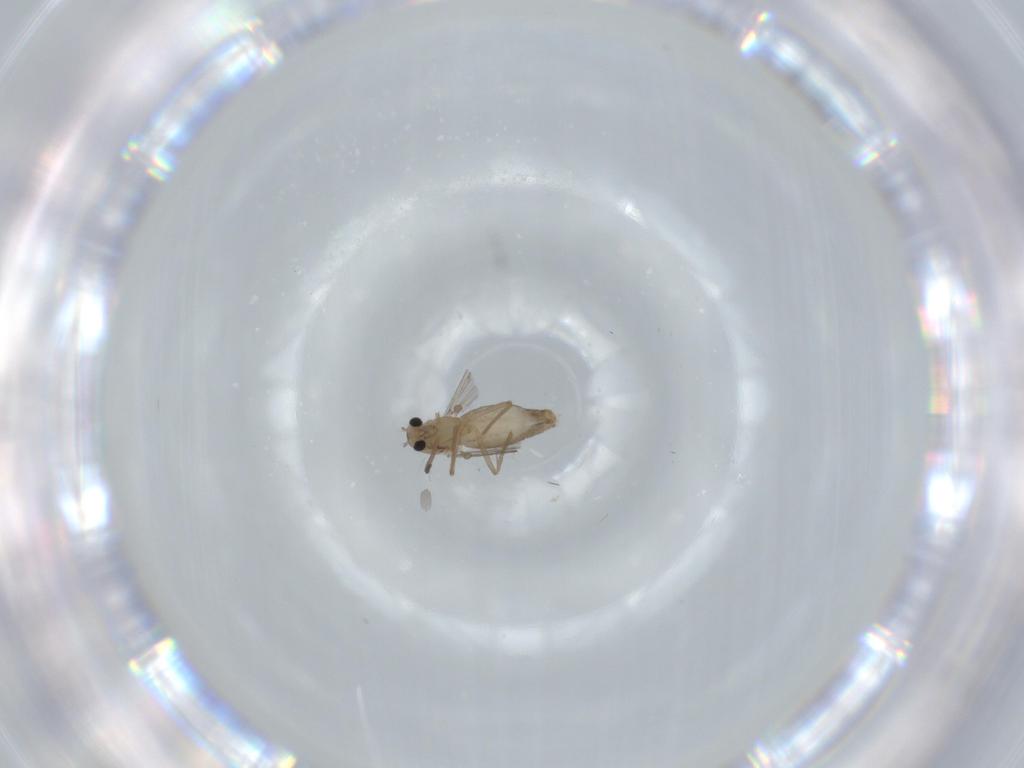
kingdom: Animalia
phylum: Arthropoda
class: Insecta
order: Diptera
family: Chironomidae
